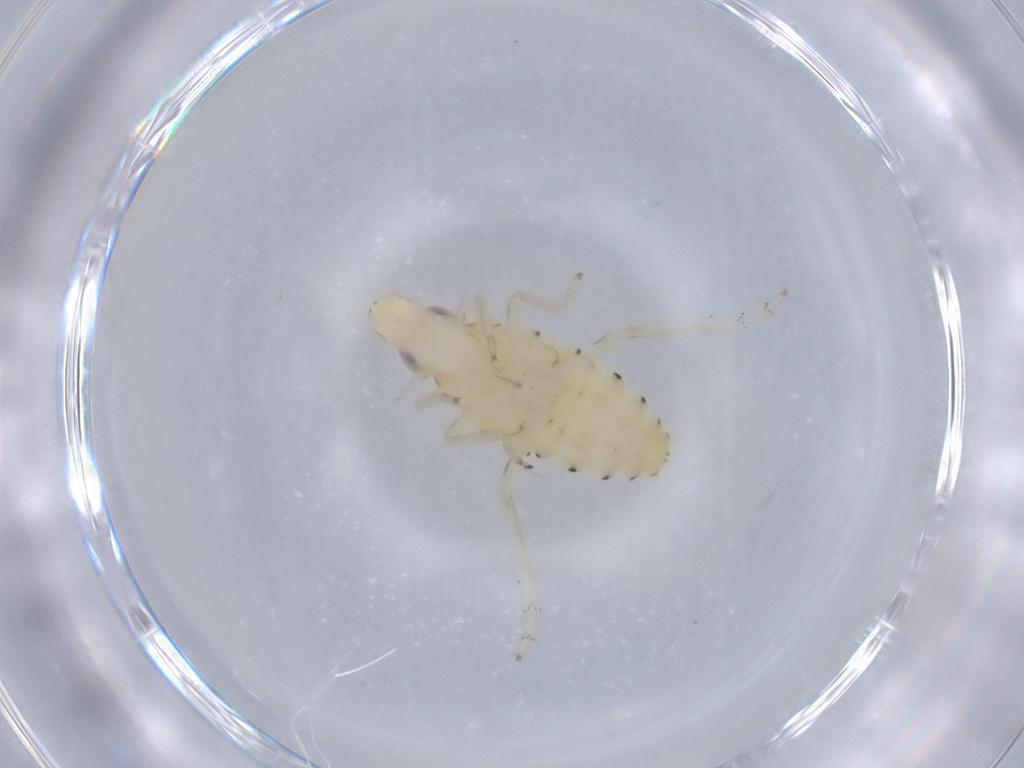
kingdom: Animalia
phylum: Arthropoda
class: Insecta
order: Hemiptera
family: Tropiduchidae
